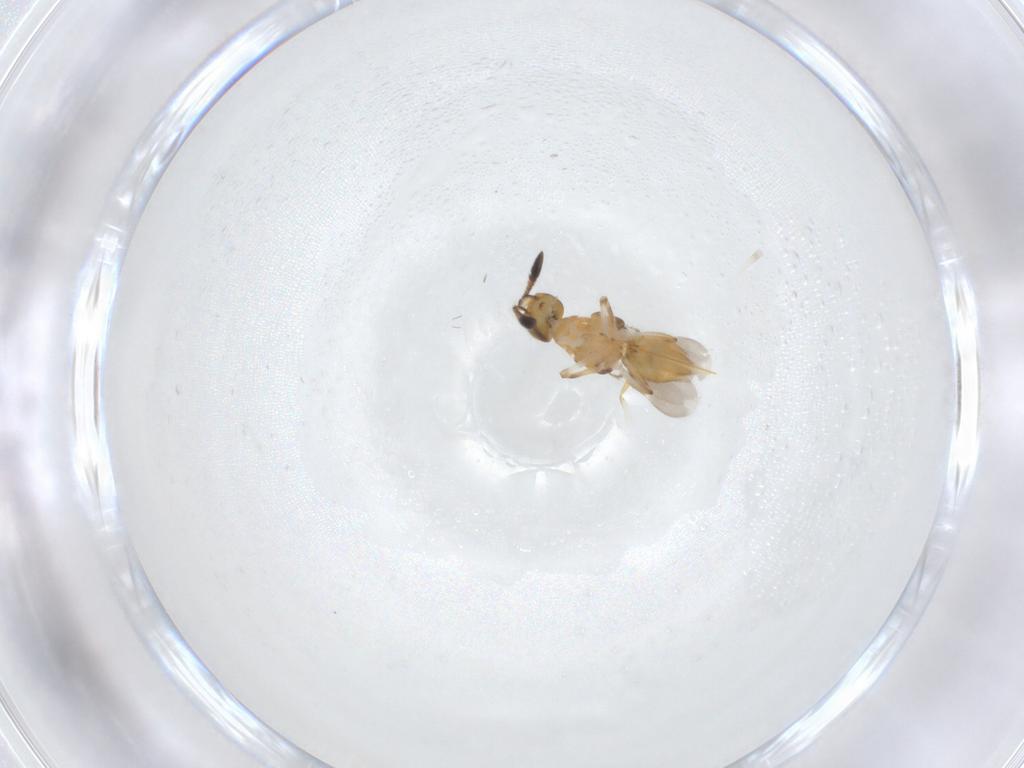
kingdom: Animalia
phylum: Arthropoda
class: Insecta
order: Hymenoptera
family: Encyrtidae
